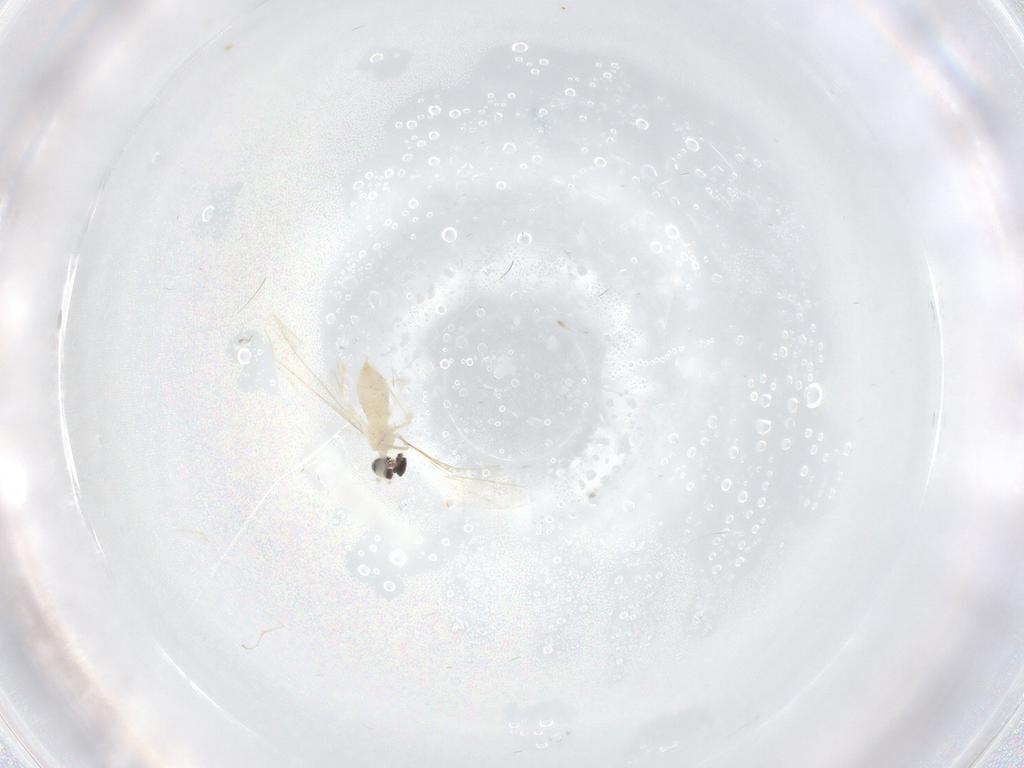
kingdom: Animalia
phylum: Arthropoda
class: Insecta
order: Diptera
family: Cecidomyiidae
